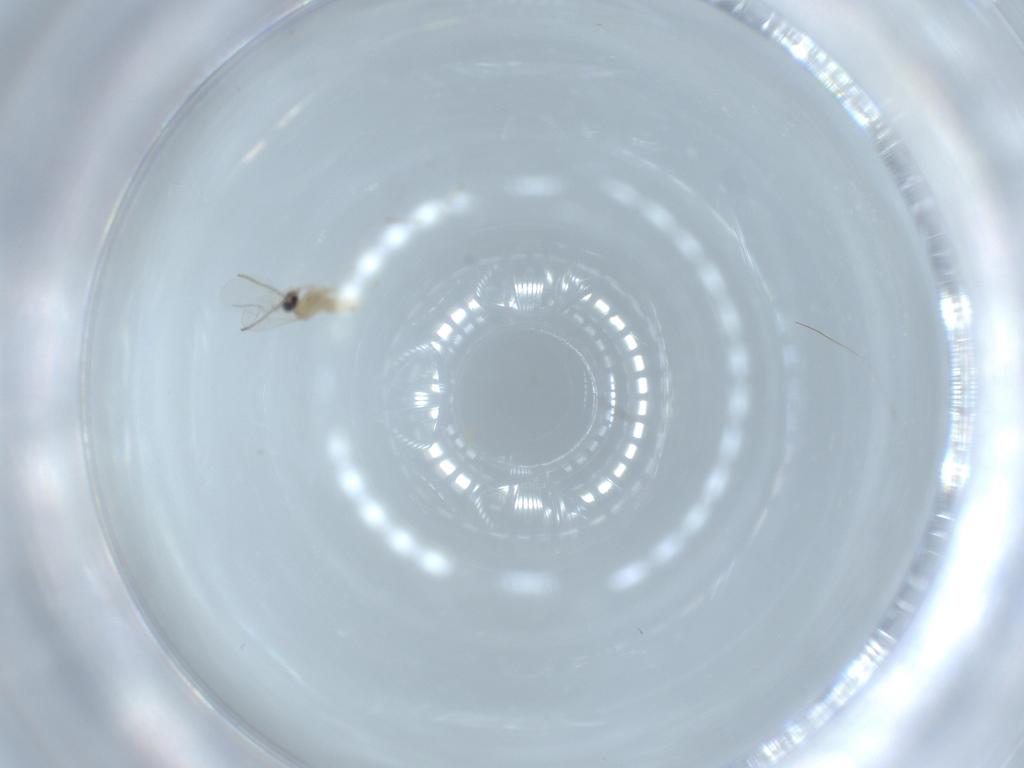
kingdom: Animalia
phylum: Arthropoda
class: Insecta
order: Diptera
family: Cecidomyiidae
